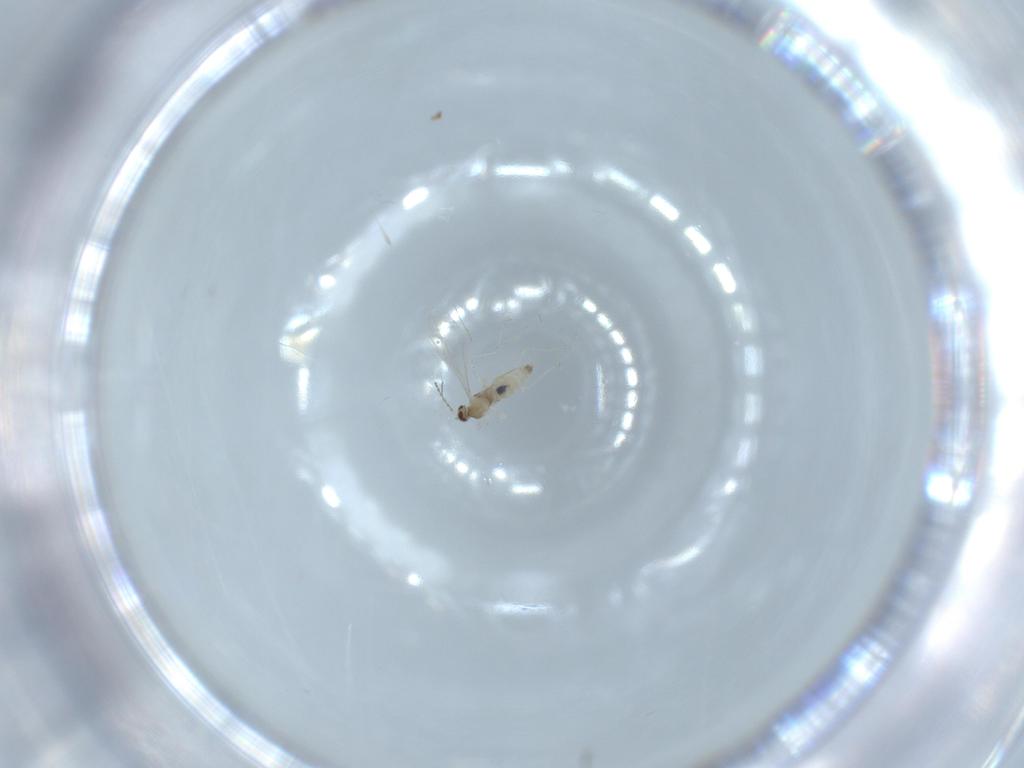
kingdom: Animalia
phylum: Arthropoda
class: Insecta
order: Diptera
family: Cecidomyiidae
